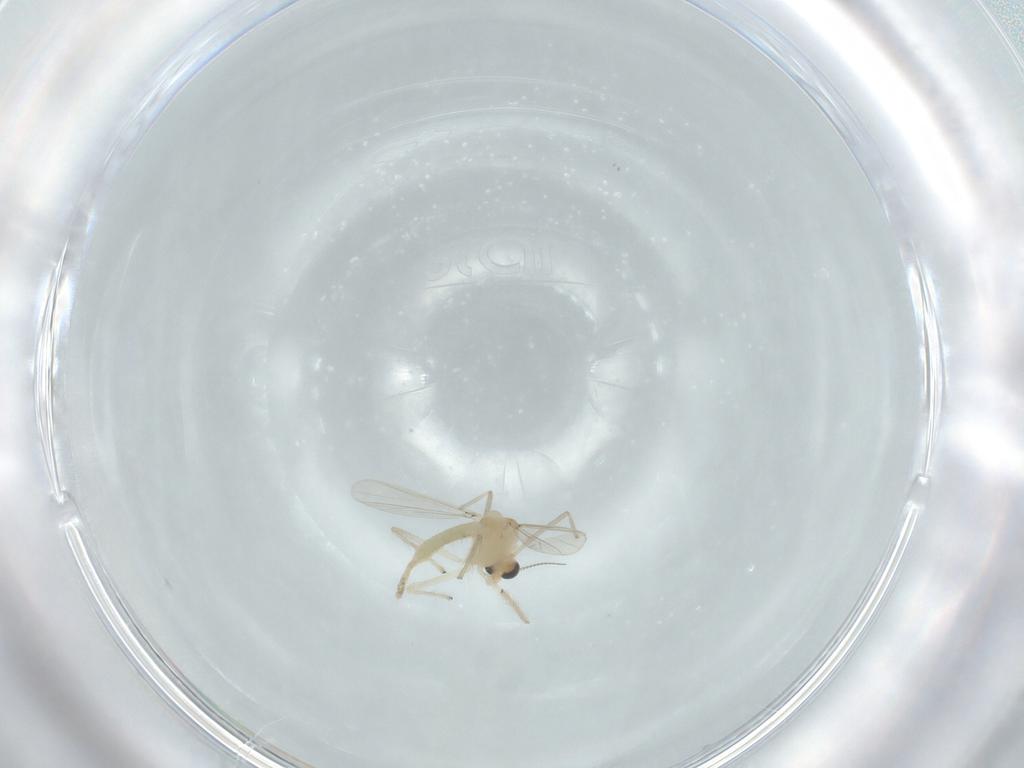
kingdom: Animalia
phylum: Arthropoda
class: Insecta
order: Diptera
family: Chironomidae
